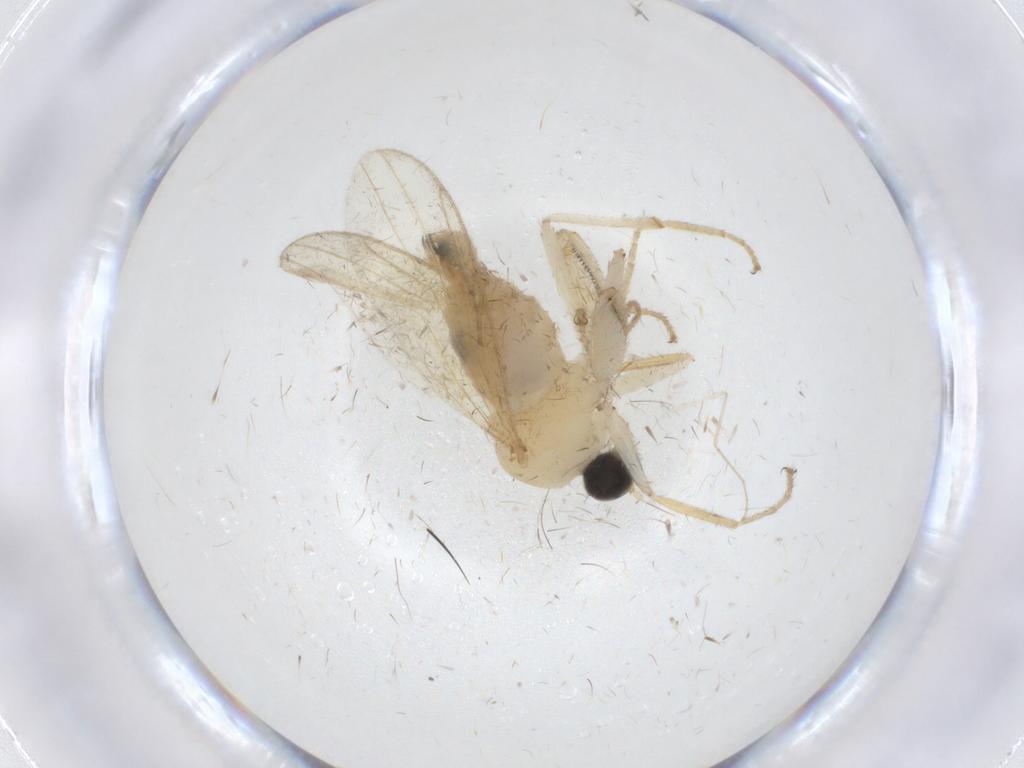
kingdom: Animalia
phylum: Arthropoda
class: Insecta
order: Diptera
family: Hybotidae
